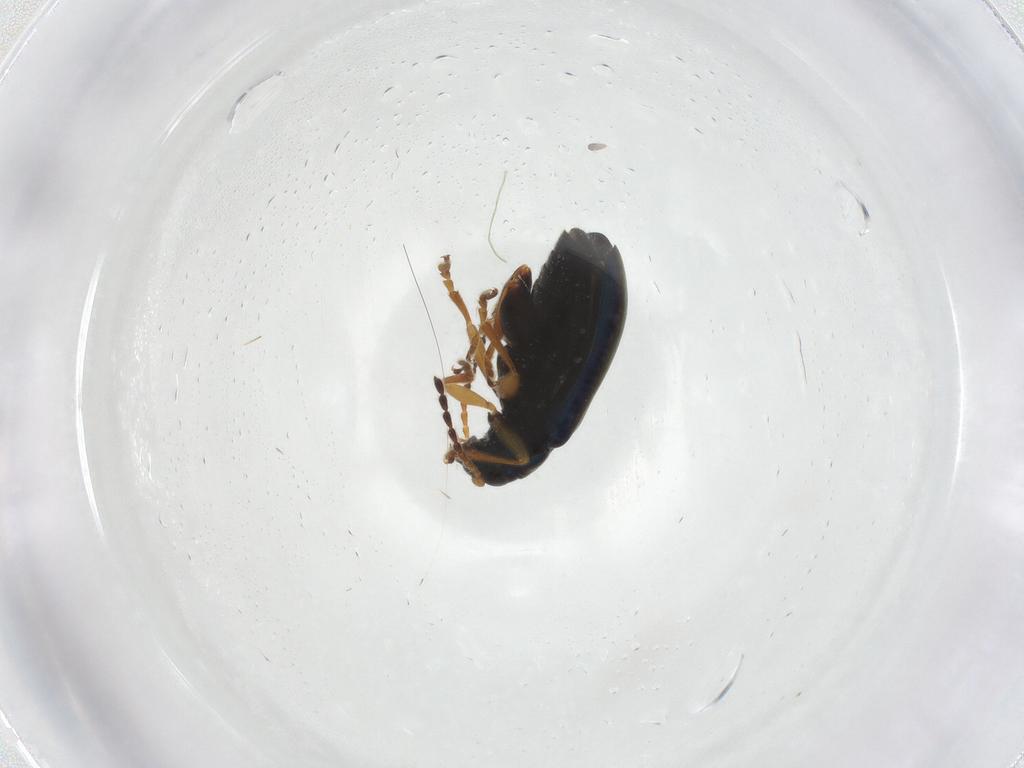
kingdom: Animalia
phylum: Arthropoda
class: Insecta
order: Coleoptera
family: Chrysomelidae
